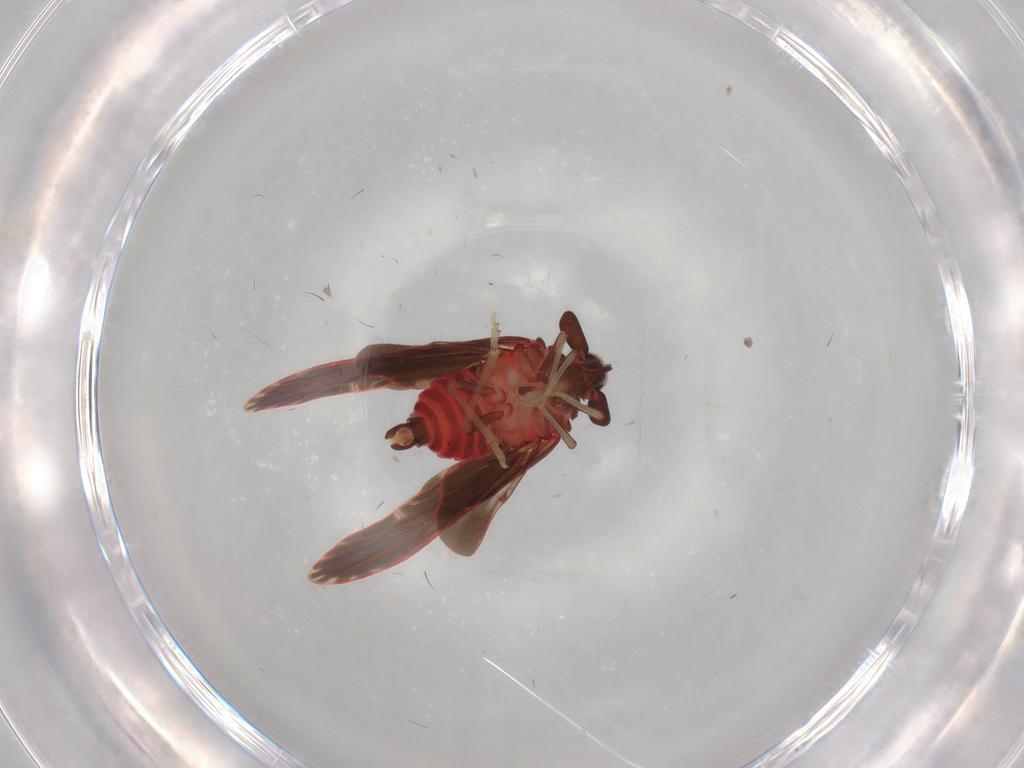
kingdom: Animalia
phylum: Arthropoda
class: Insecta
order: Hemiptera
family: Derbidae
